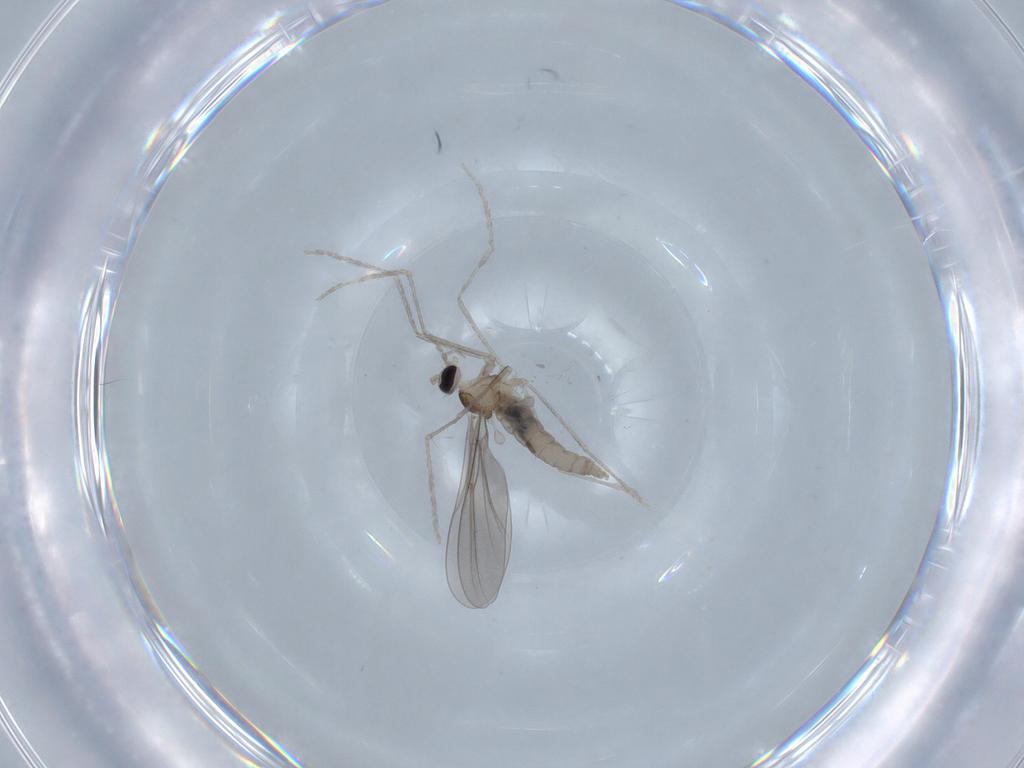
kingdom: Animalia
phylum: Arthropoda
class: Insecta
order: Diptera
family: Cecidomyiidae
